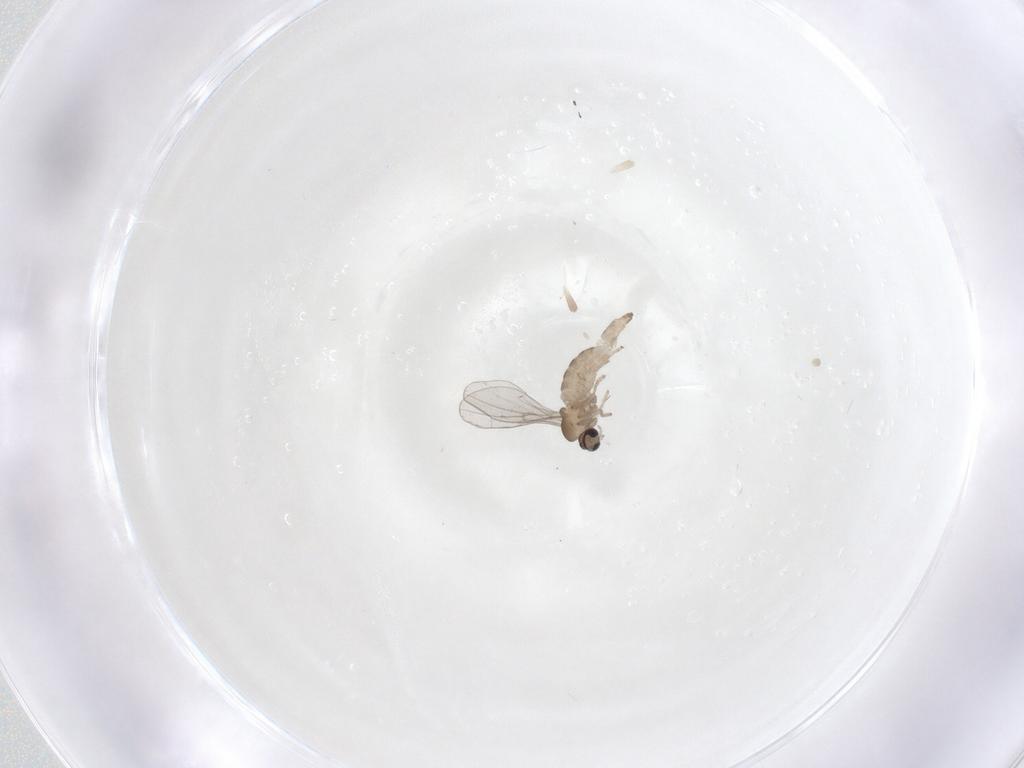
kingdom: Animalia
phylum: Arthropoda
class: Insecta
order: Diptera
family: Cecidomyiidae
